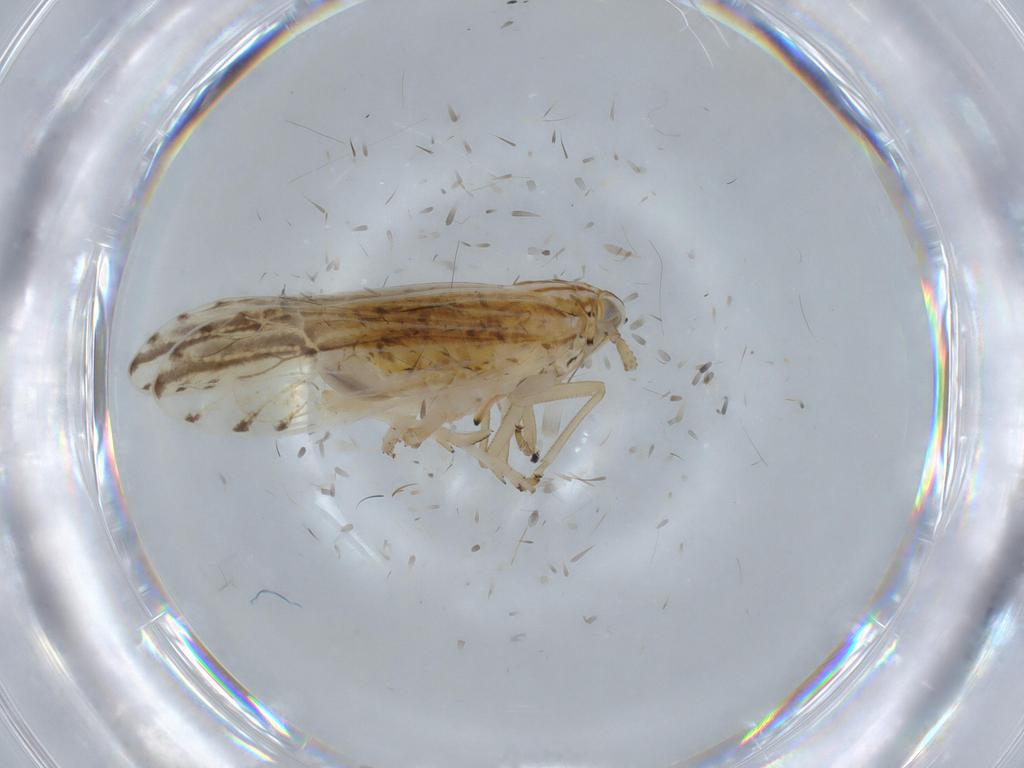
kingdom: Animalia
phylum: Arthropoda
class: Insecta
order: Hemiptera
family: Delphacidae
